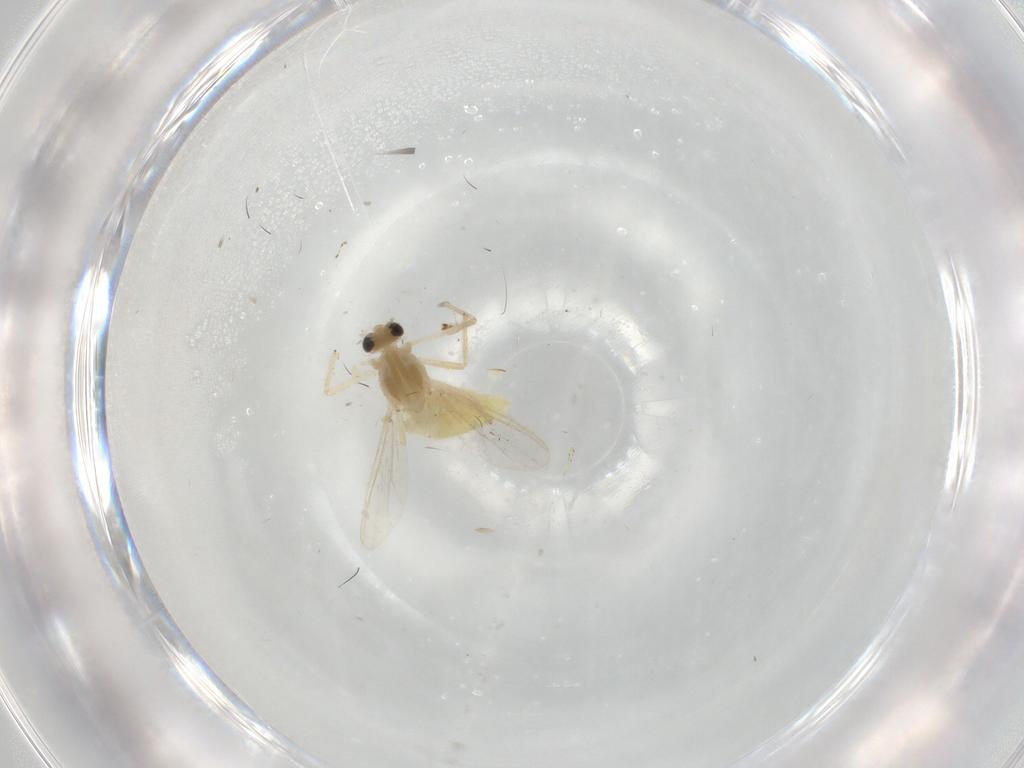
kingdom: Animalia
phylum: Arthropoda
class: Insecta
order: Diptera
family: Chironomidae
